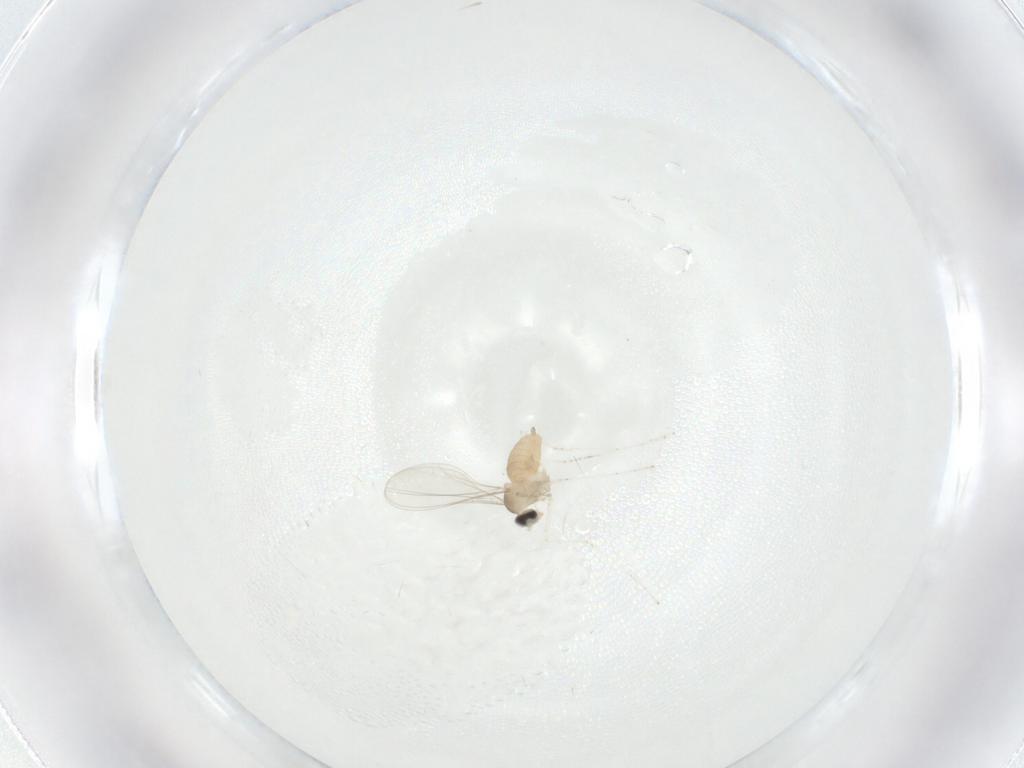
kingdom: Animalia
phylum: Arthropoda
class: Insecta
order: Diptera
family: Cecidomyiidae
